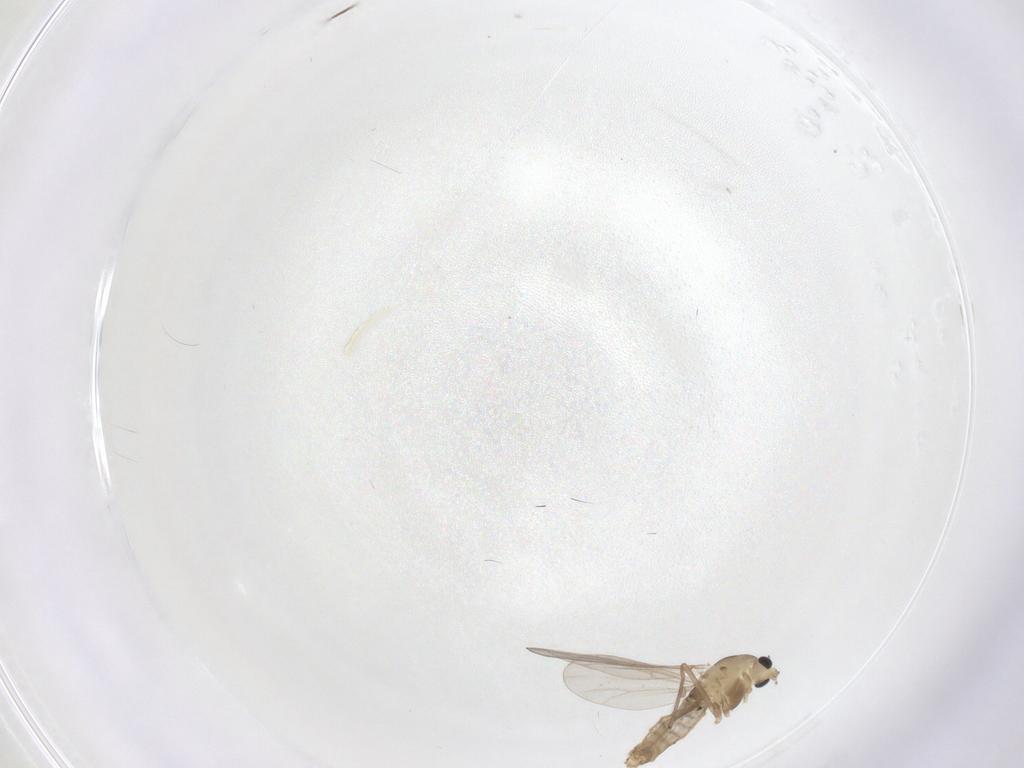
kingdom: Animalia
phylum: Arthropoda
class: Insecta
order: Diptera
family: Chironomidae
